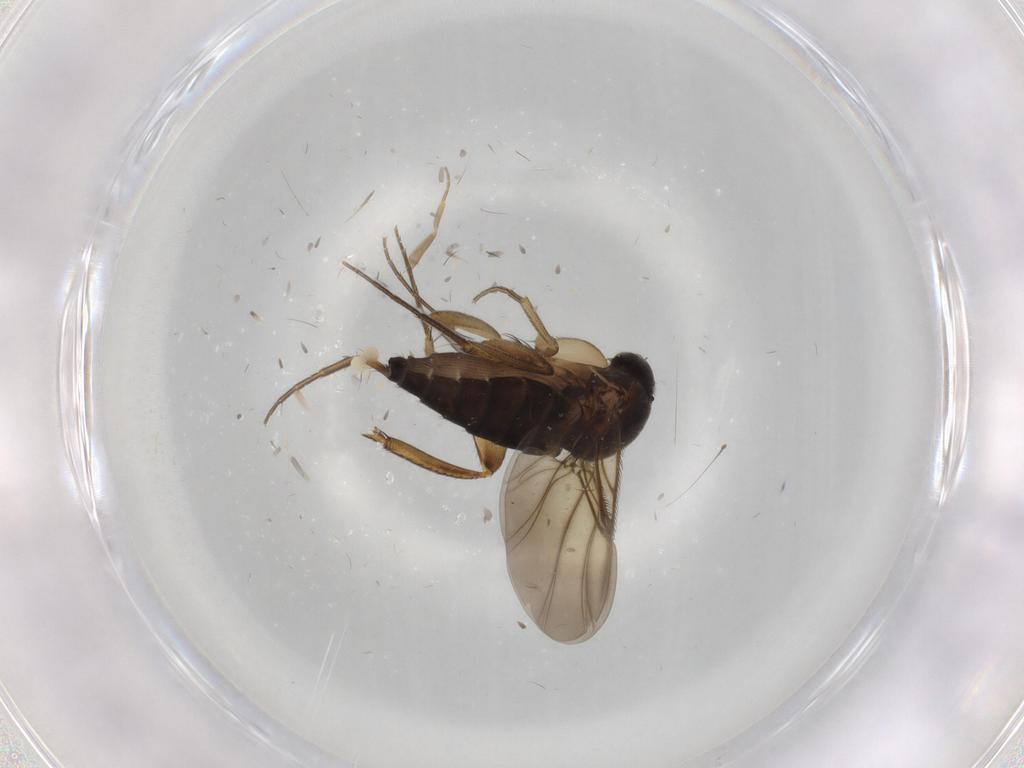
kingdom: Animalia
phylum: Arthropoda
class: Insecta
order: Diptera
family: Phoridae
